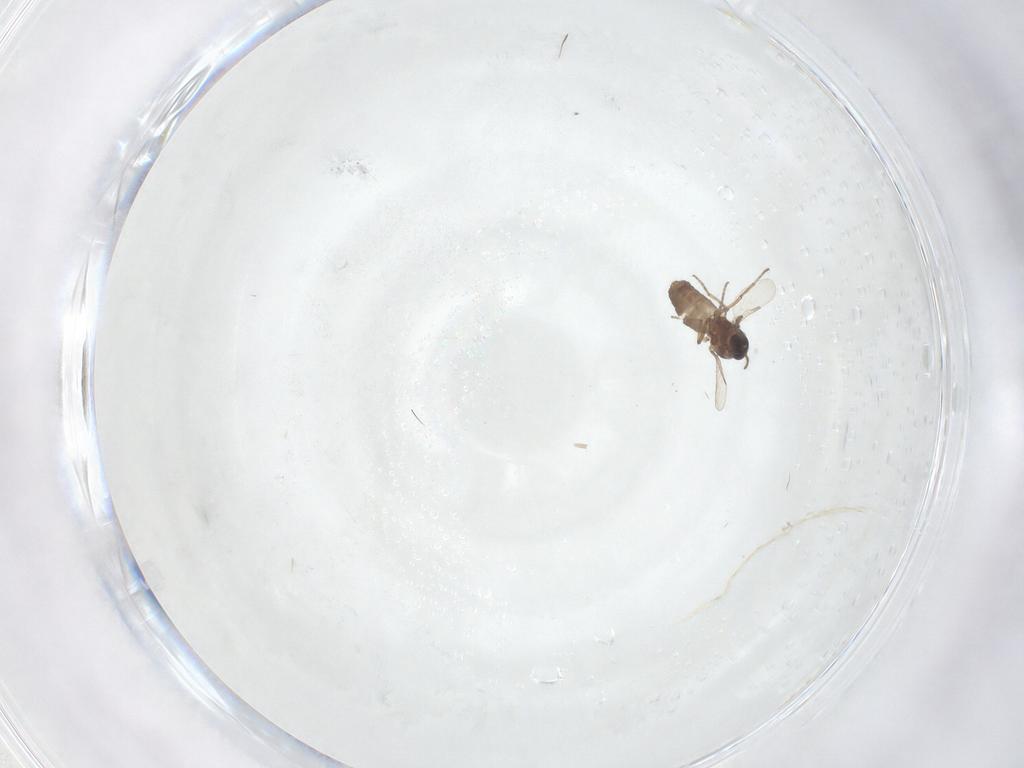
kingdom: Animalia
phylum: Arthropoda
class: Insecta
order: Diptera
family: Ceratopogonidae
